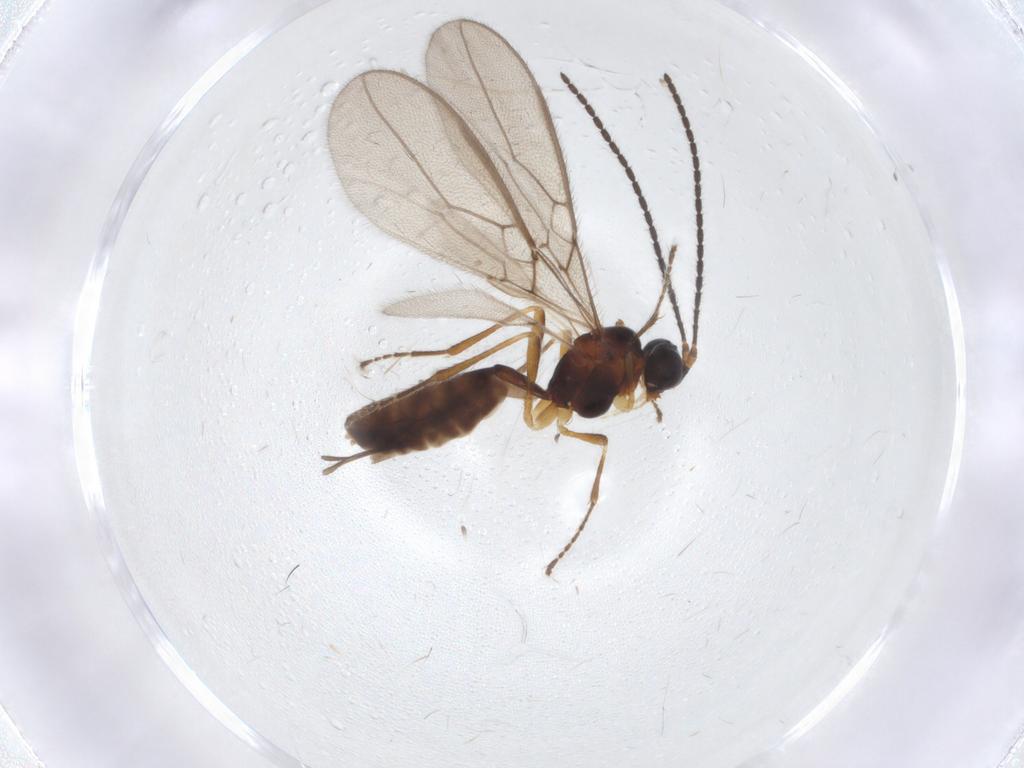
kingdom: Animalia
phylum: Arthropoda
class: Insecta
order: Hymenoptera
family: Braconidae
